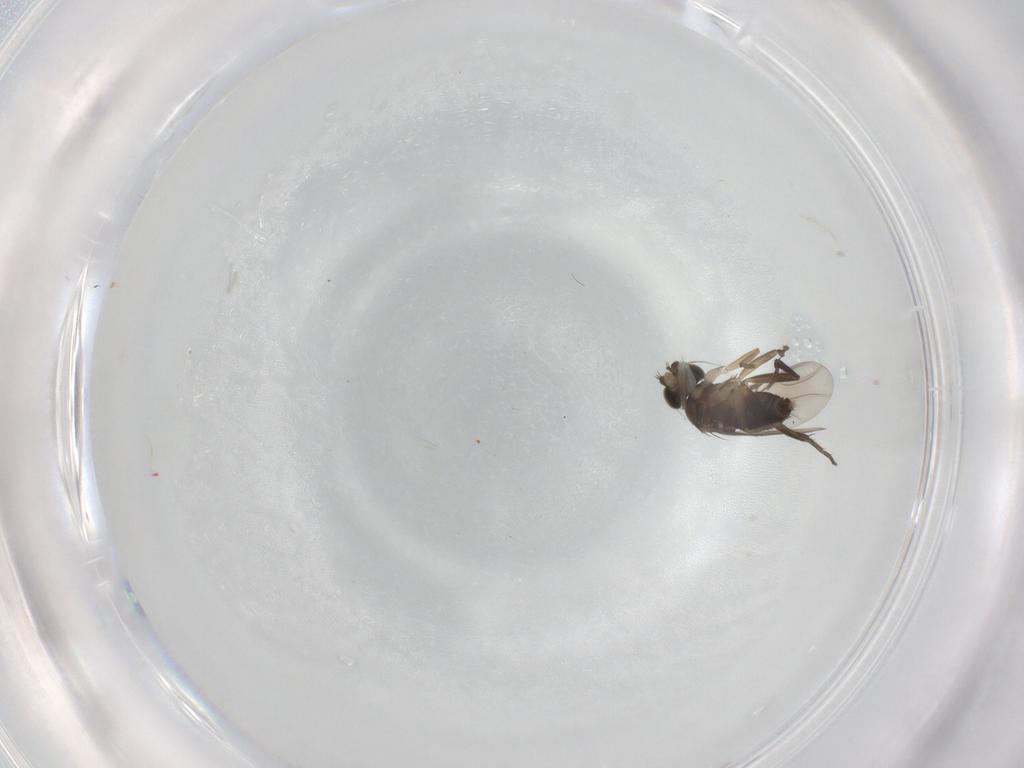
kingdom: Animalia
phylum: Arthropoda
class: Insecta
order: Diptera
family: Phoridae
